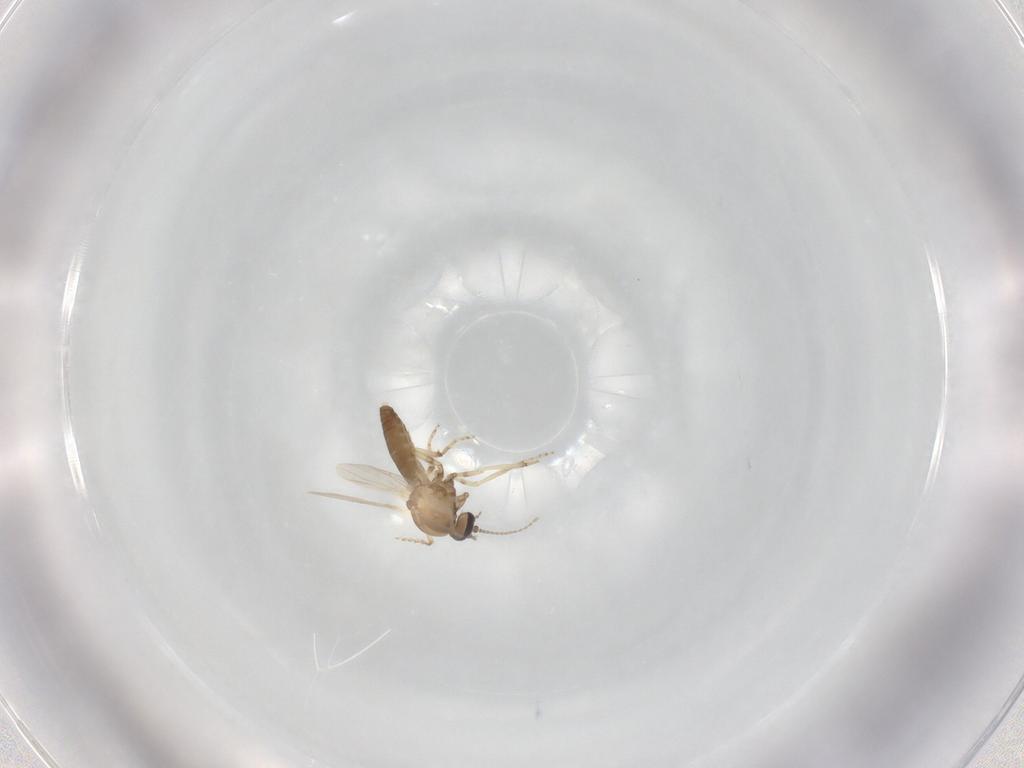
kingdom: Animalia
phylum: Arthropoda
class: Insecta
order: Diptera
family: Ceratopogonidae
